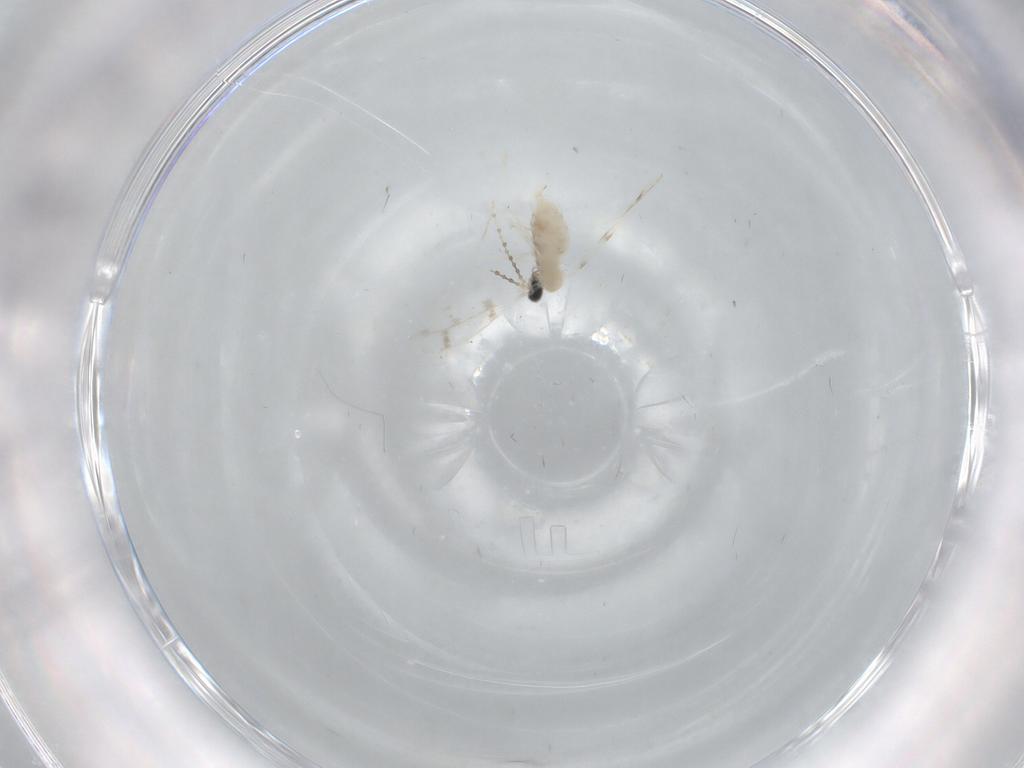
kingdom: Animalia
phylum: Arthropoda
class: Insecta
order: Diptera
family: Cecidomyiidae
